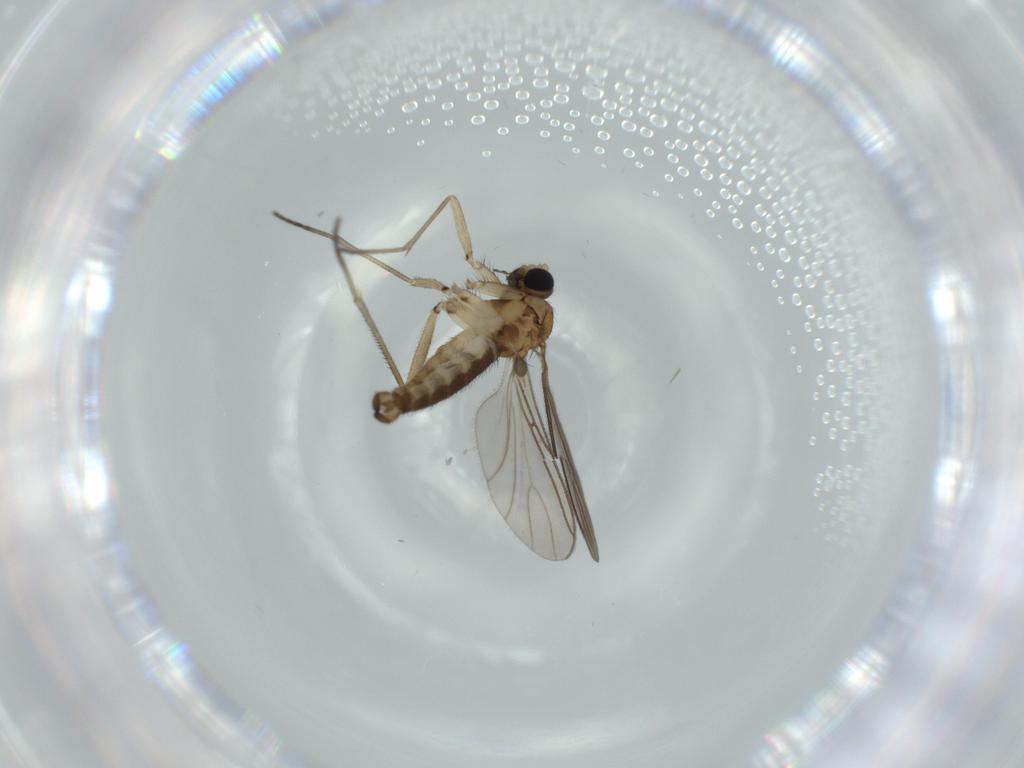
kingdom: Animalia
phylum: Arthropoda
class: Insecta
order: Diptera
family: Sciaridae
